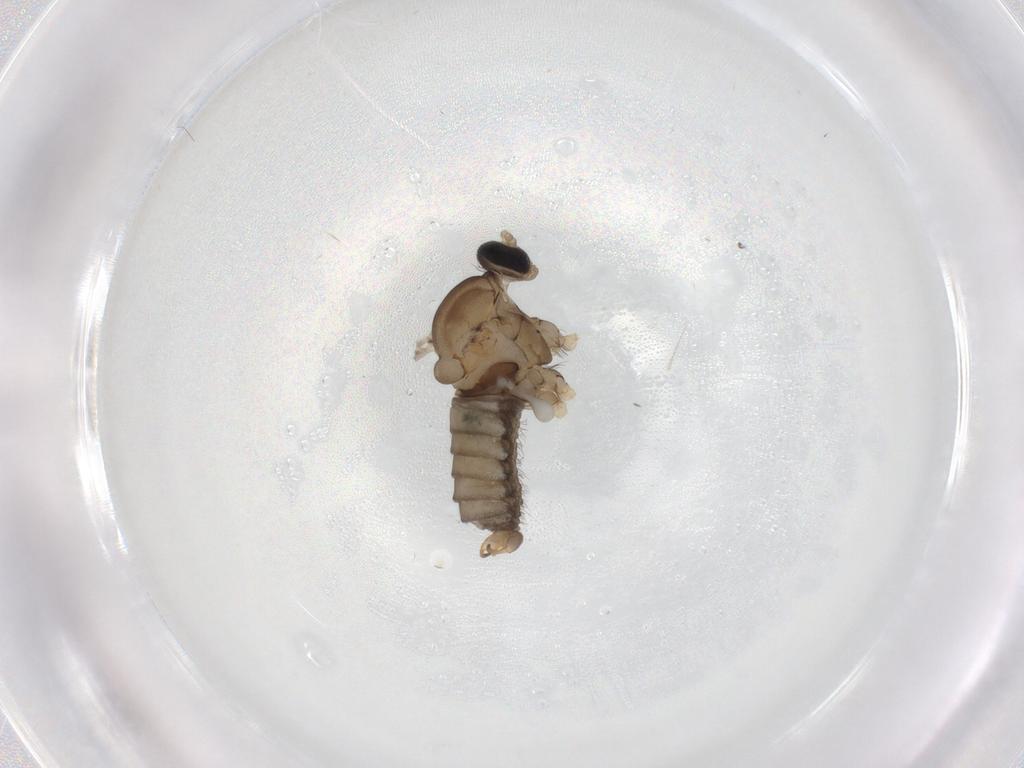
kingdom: Animalia
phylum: Arthropoda
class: Insecta
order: Diptera
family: Cecidomyiidae
